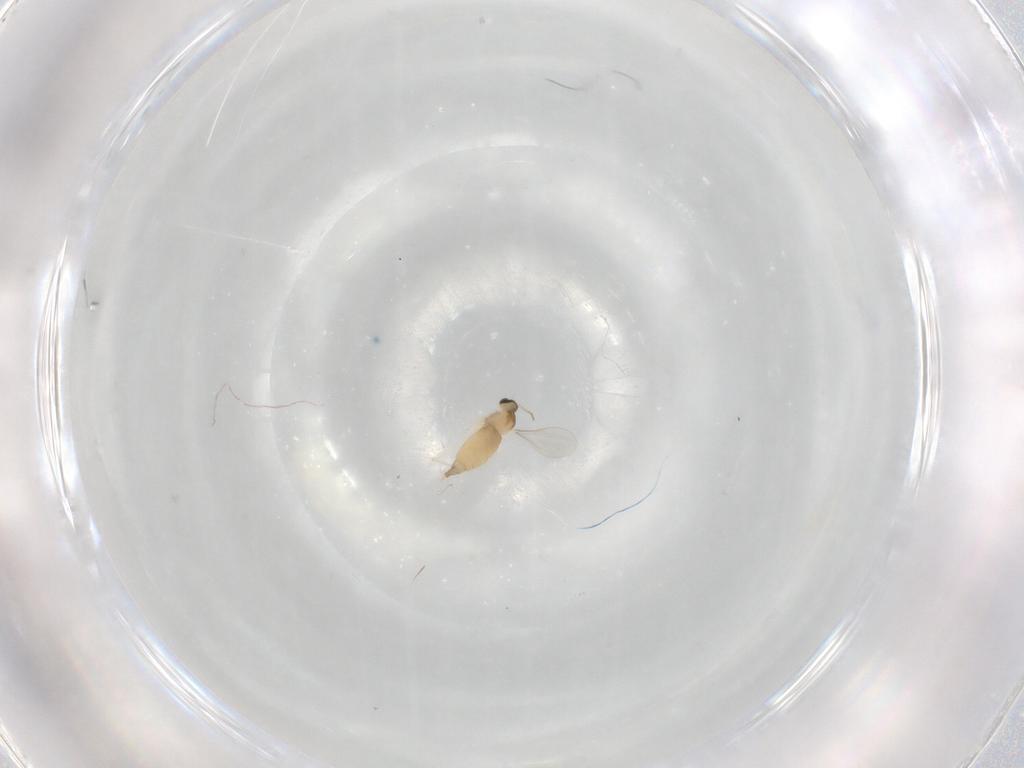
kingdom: Animalia
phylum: Arthropoda
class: Insecta
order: Diptera
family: Cecidomyiidae
